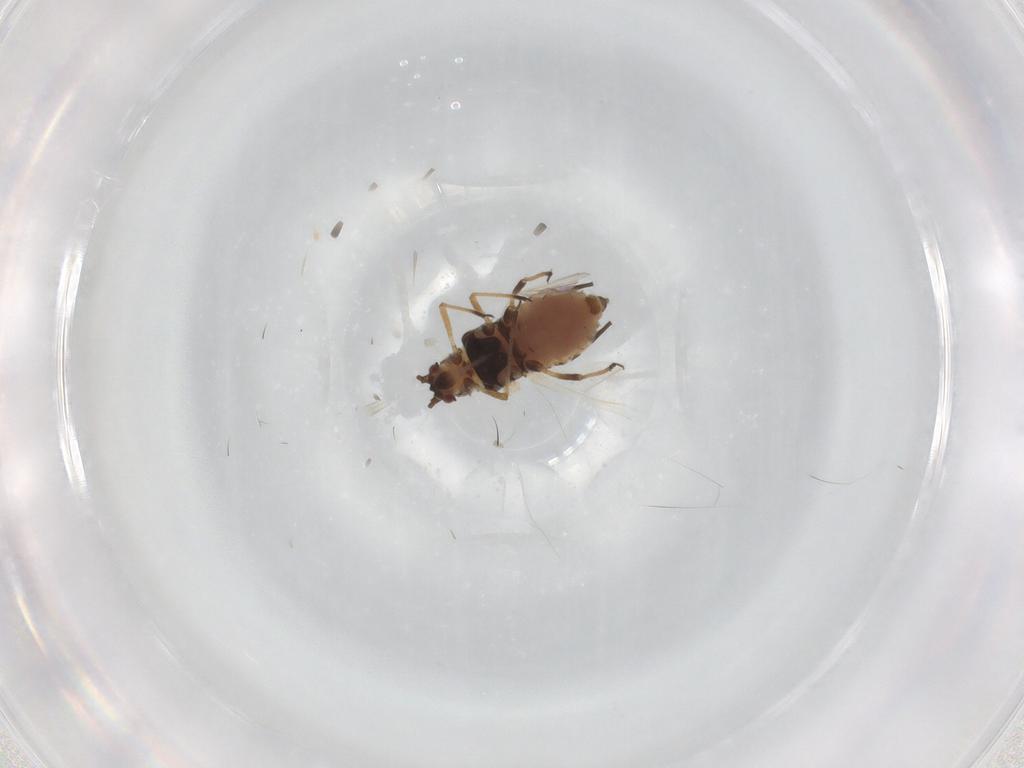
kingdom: Animalia
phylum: Arthropoda
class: Insecta
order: Hemiptera
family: Aphididae
